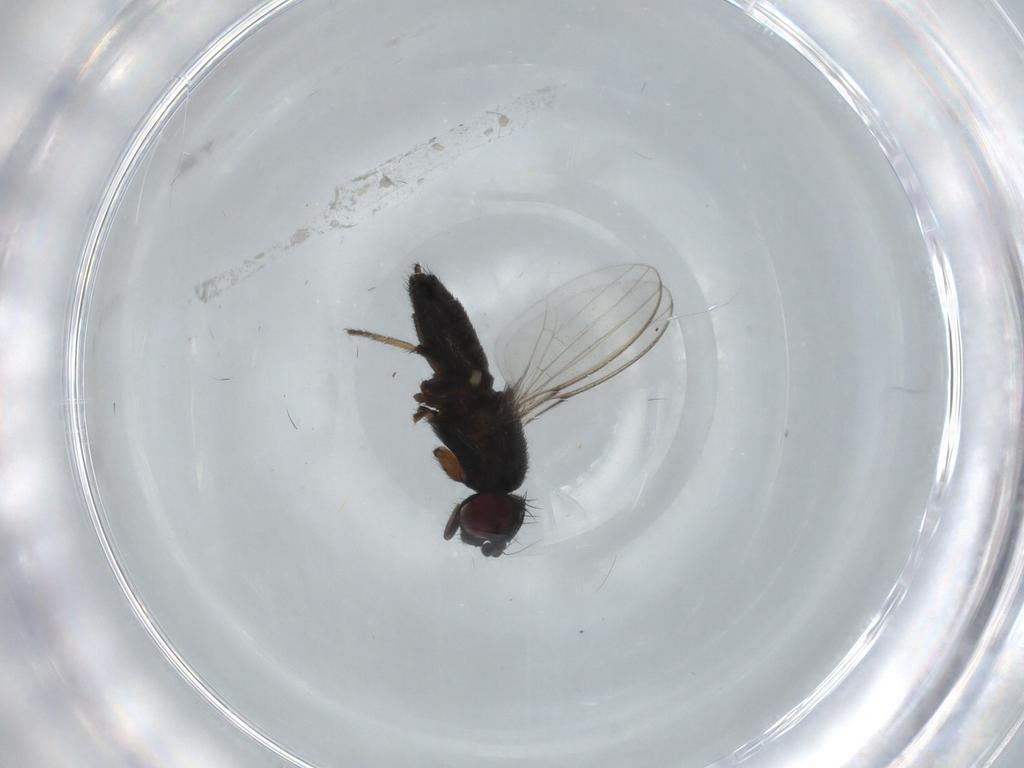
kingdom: Animalia
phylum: Arthropoda
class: Insecta
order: Diptera
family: Milichiidae
